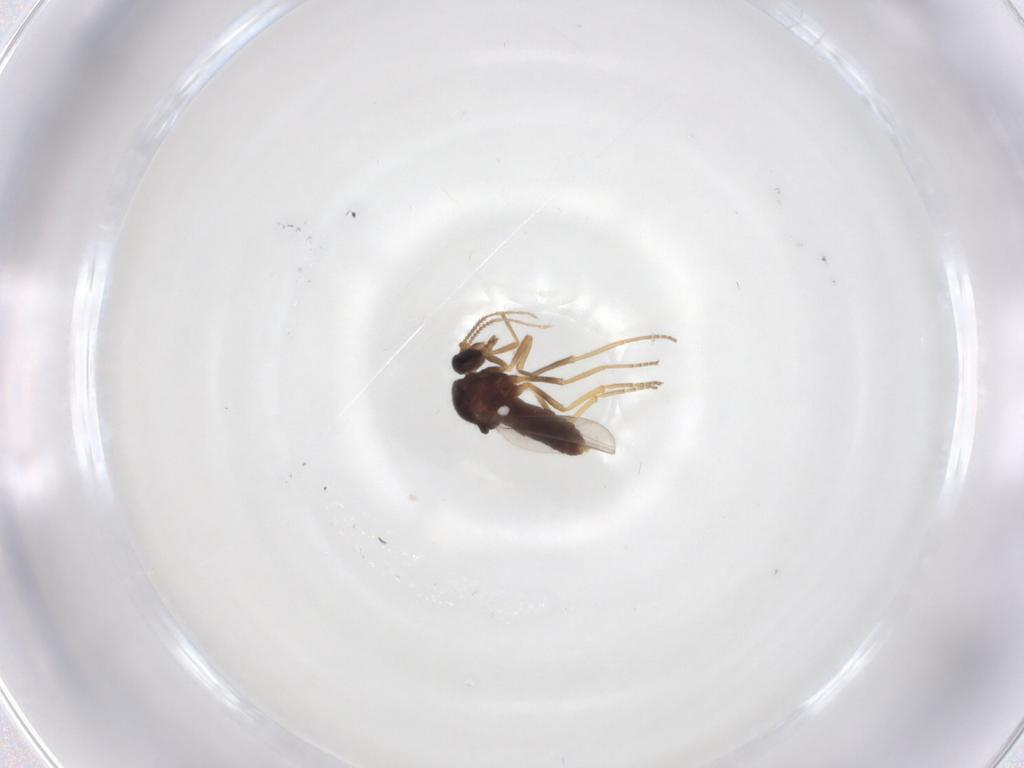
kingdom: Animalia
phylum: Arthropoda
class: Insecta
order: Diptera
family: Ceratopogonidae
